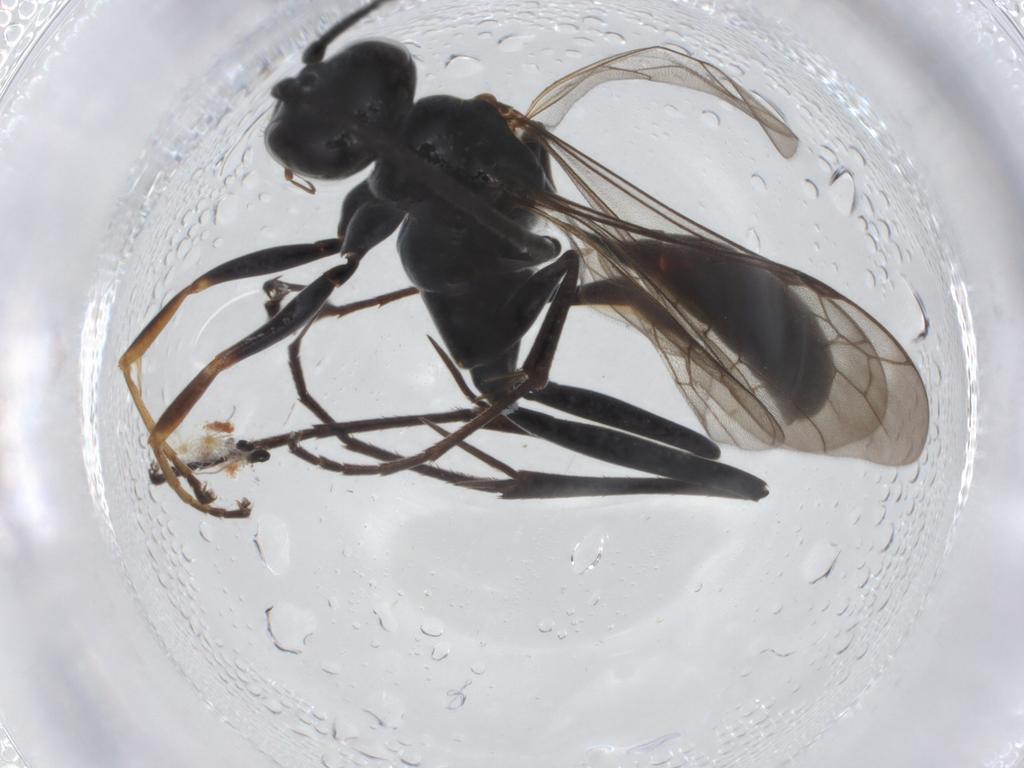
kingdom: Animalia
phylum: Arthropoda
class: Insecta
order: Hymenoptera
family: Pompilidae
